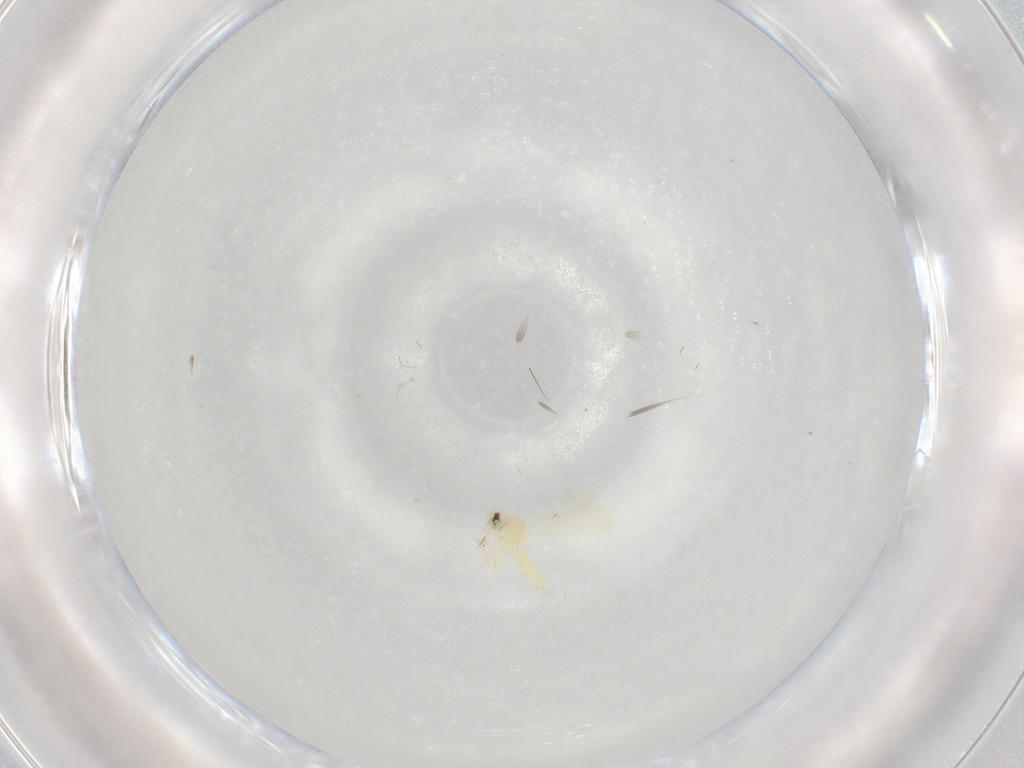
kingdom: Animalia
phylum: Arthropoda
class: Insecta
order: Hemiptera
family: Aleyrodidae
